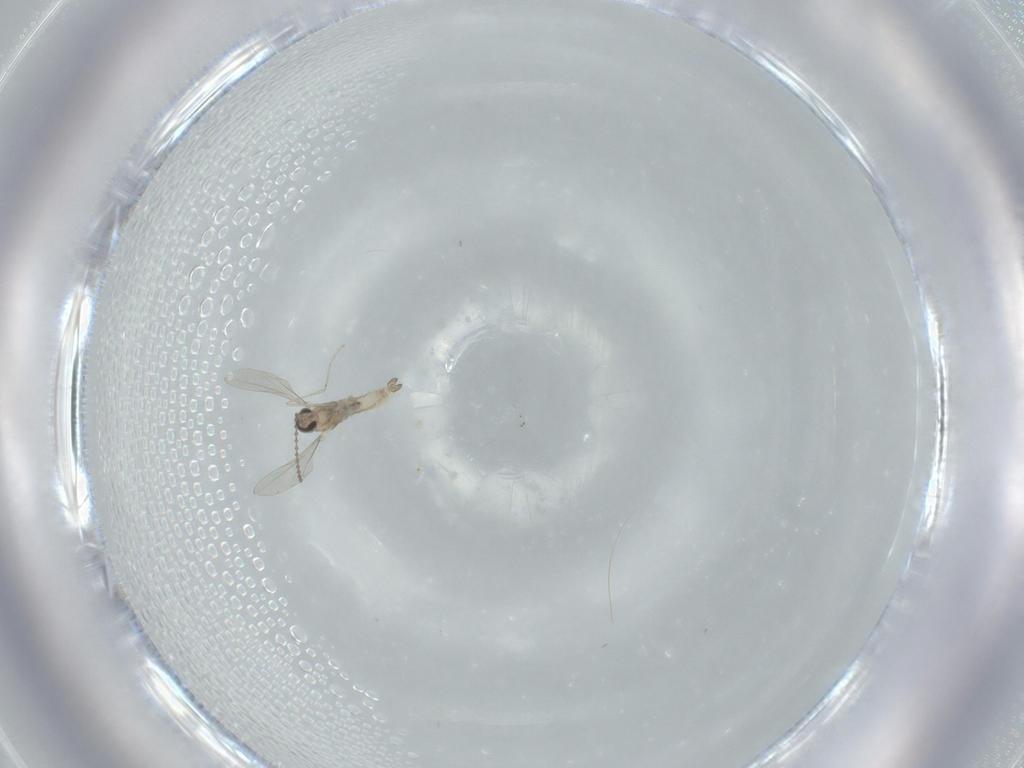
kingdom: Animalia
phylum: Arthropoda
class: Insecta
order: Diptera
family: Cecidomyiidae
